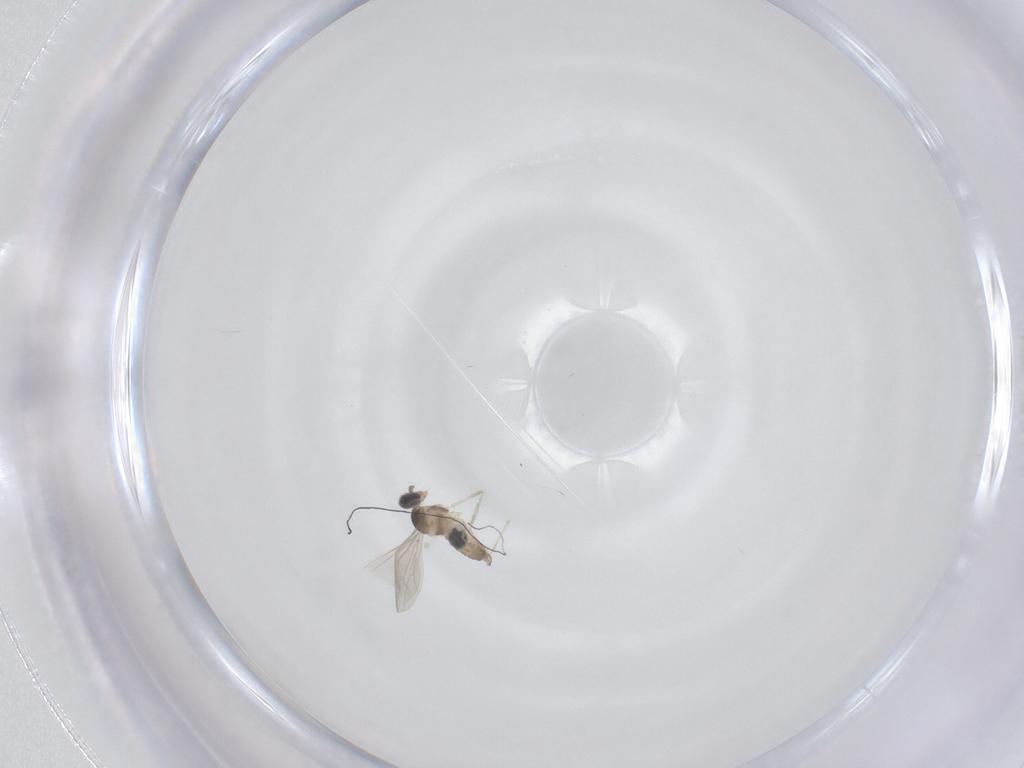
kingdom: Animalia
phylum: Arthropoda
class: Insecta
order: Diptera
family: Cecidomyiidae
